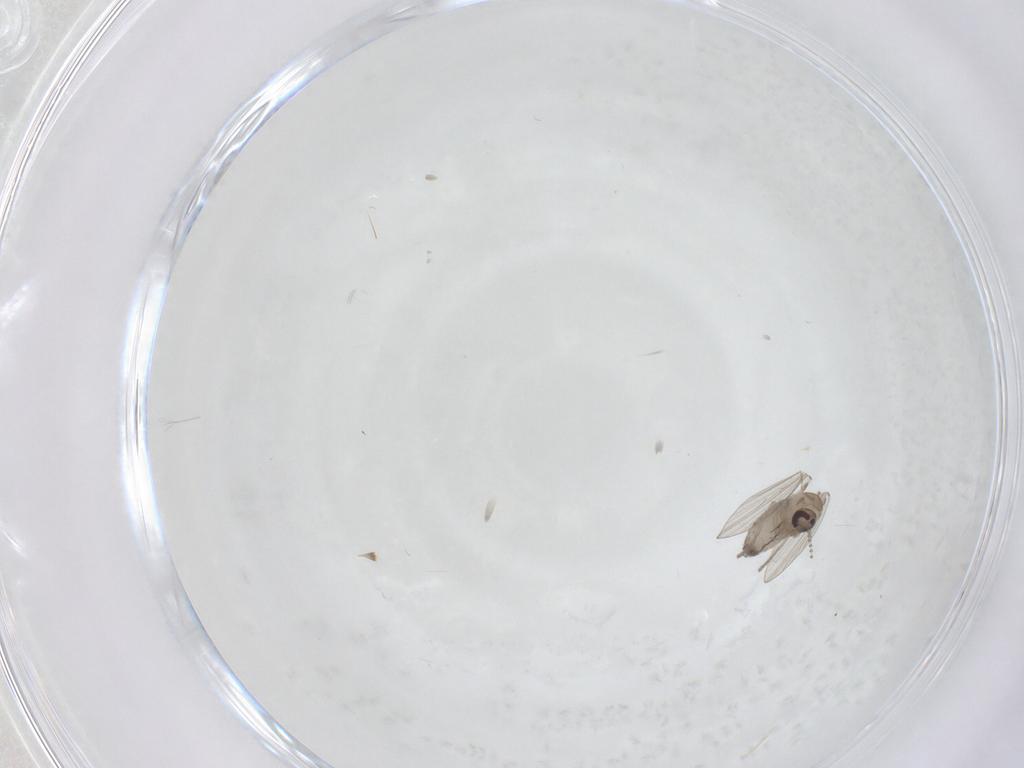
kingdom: Animalia
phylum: Arthropoda
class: Insecta
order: Diptera
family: Psychodidae
